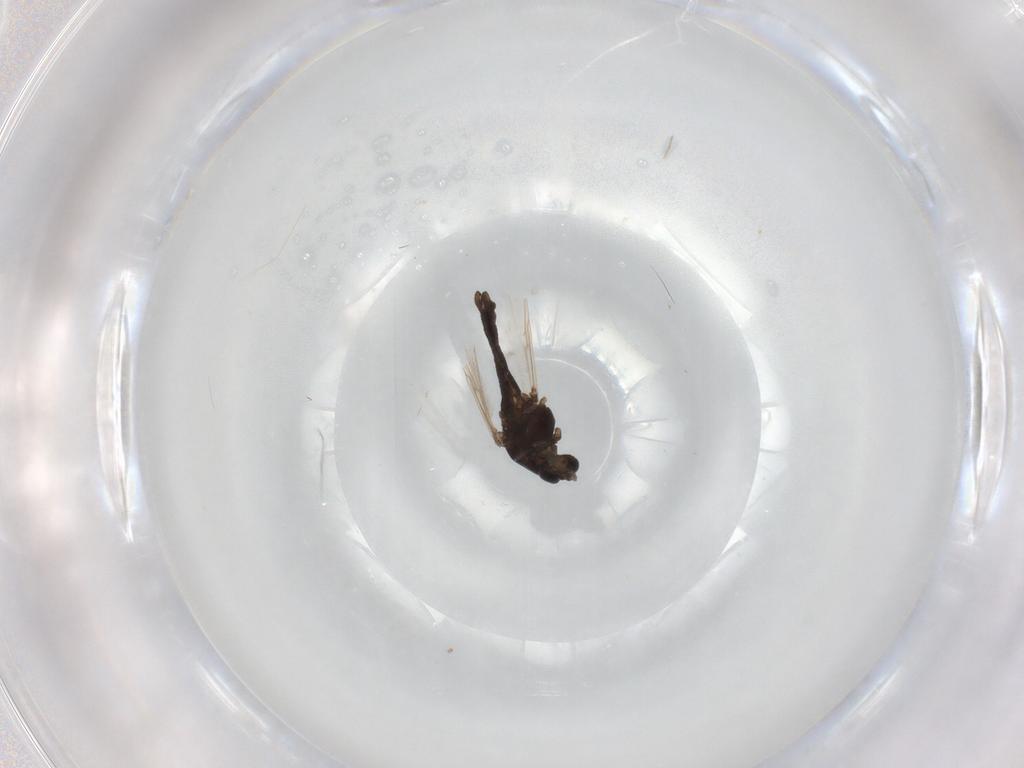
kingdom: Animalia
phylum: Arthropoda
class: Insecta
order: Diptera
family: Chironomidae
